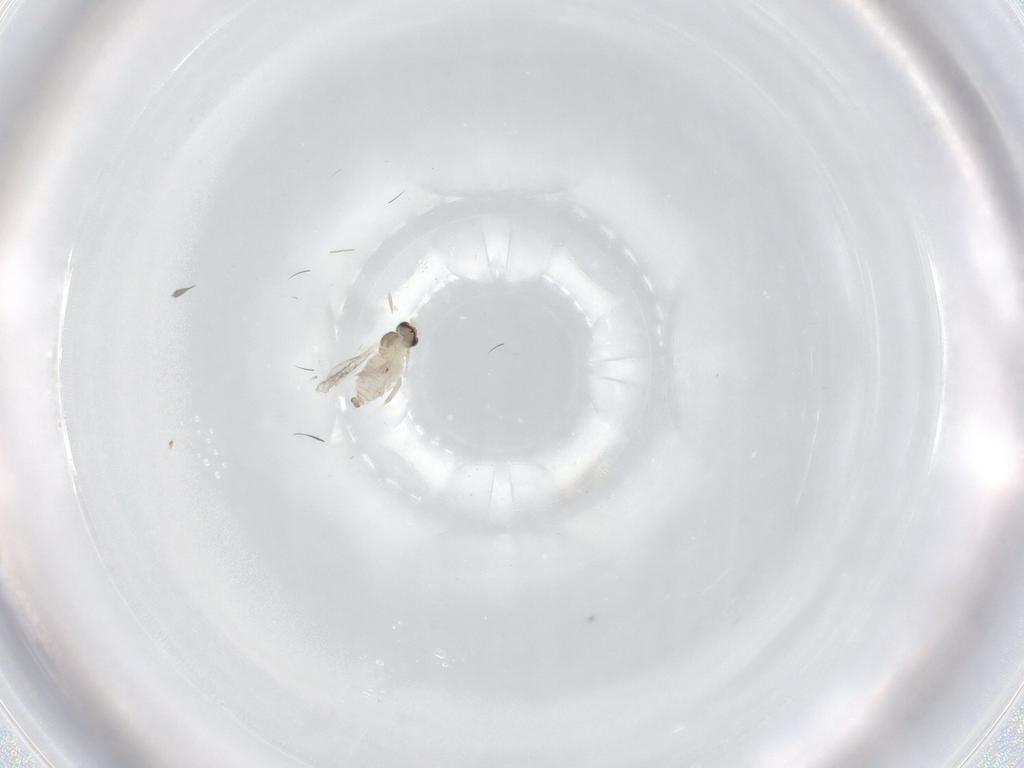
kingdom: Animalia
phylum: Arthropoda
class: Insecta
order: Diptera
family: Cecidomyiidae
